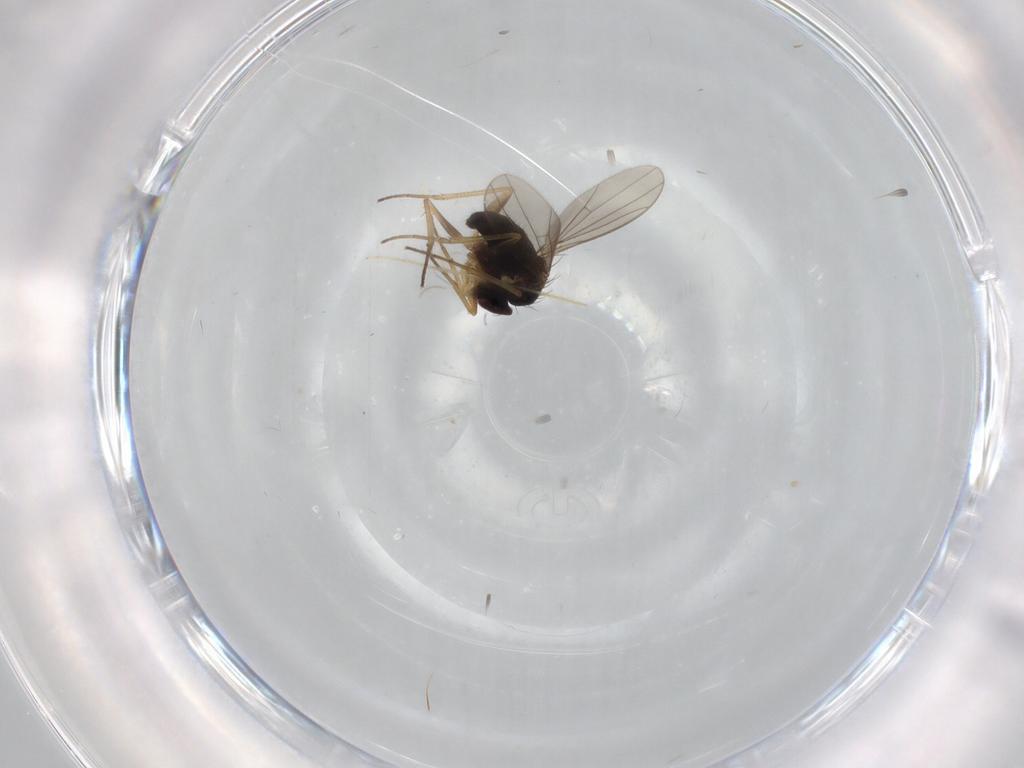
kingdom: Animalia
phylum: Arthropoda
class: Insecta
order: Diptera
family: Dolichopodidae
